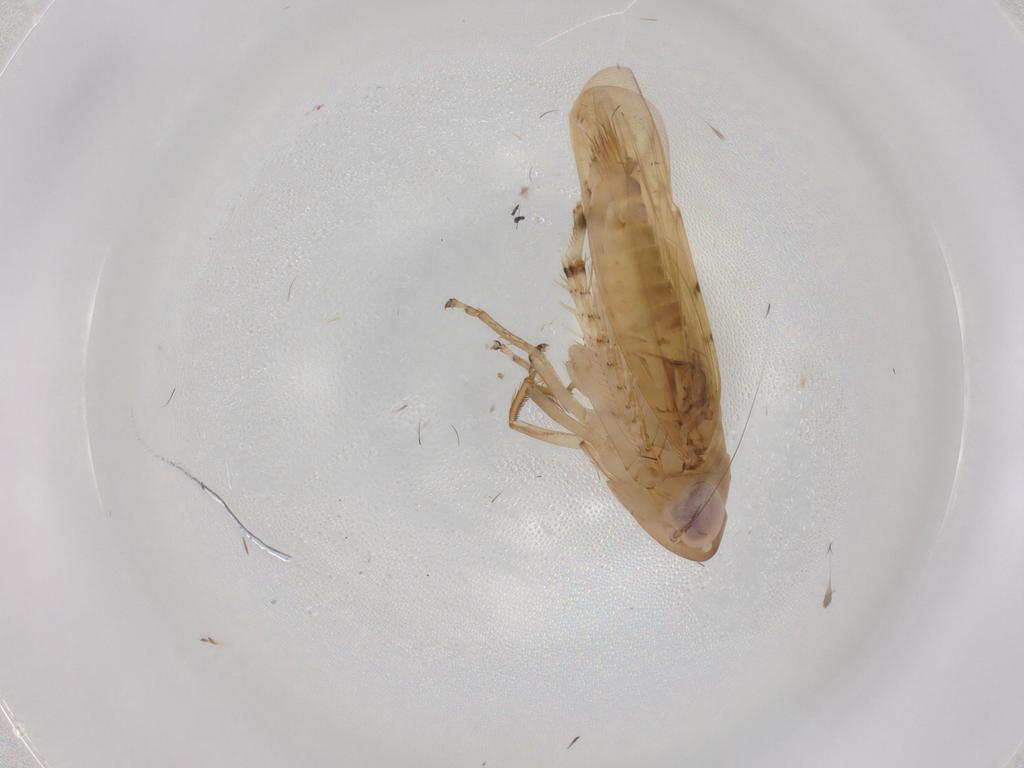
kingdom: Animalia
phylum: Arthropoda
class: Insecta
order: Hemiptera
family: Cicadellidae
